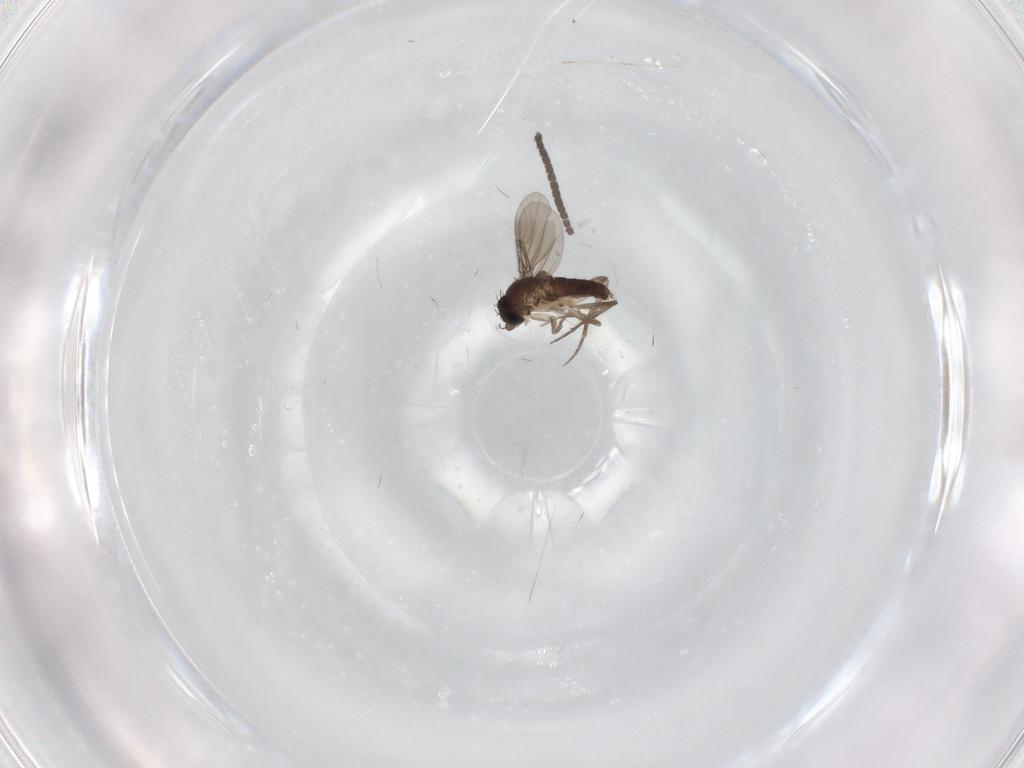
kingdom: Animalia
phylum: Arthropoda
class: Insecta
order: Diptera
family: Phoridae
